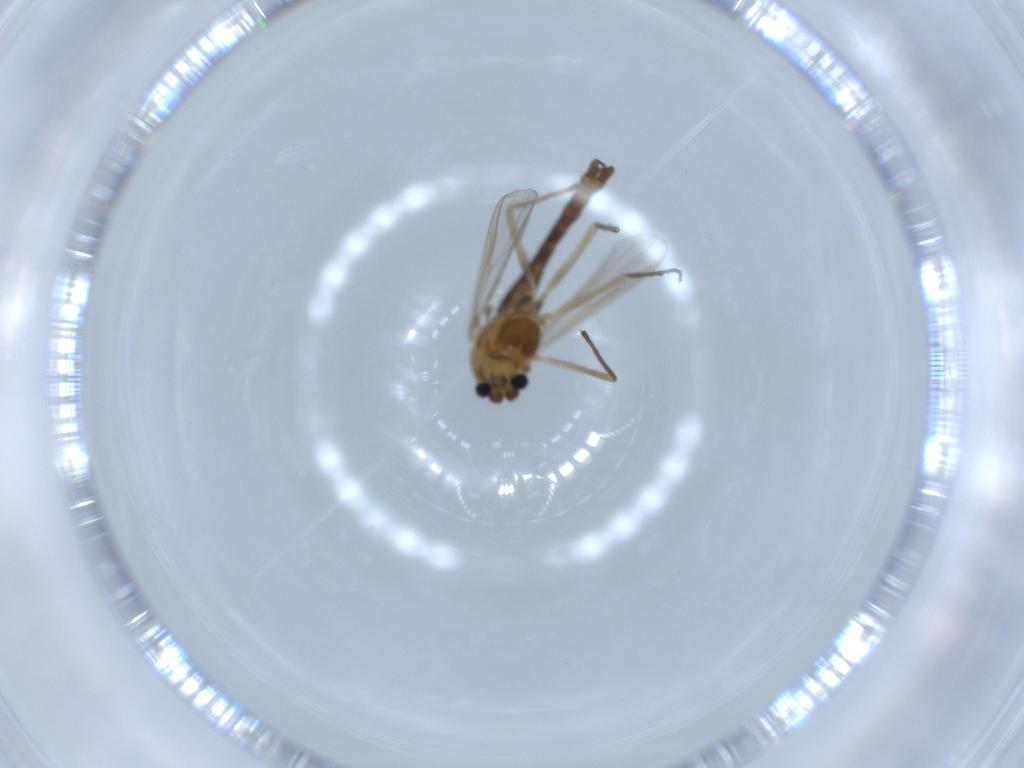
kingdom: Animalia
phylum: Arthropoda
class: Insecta
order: Diptera
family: Chironomidae
